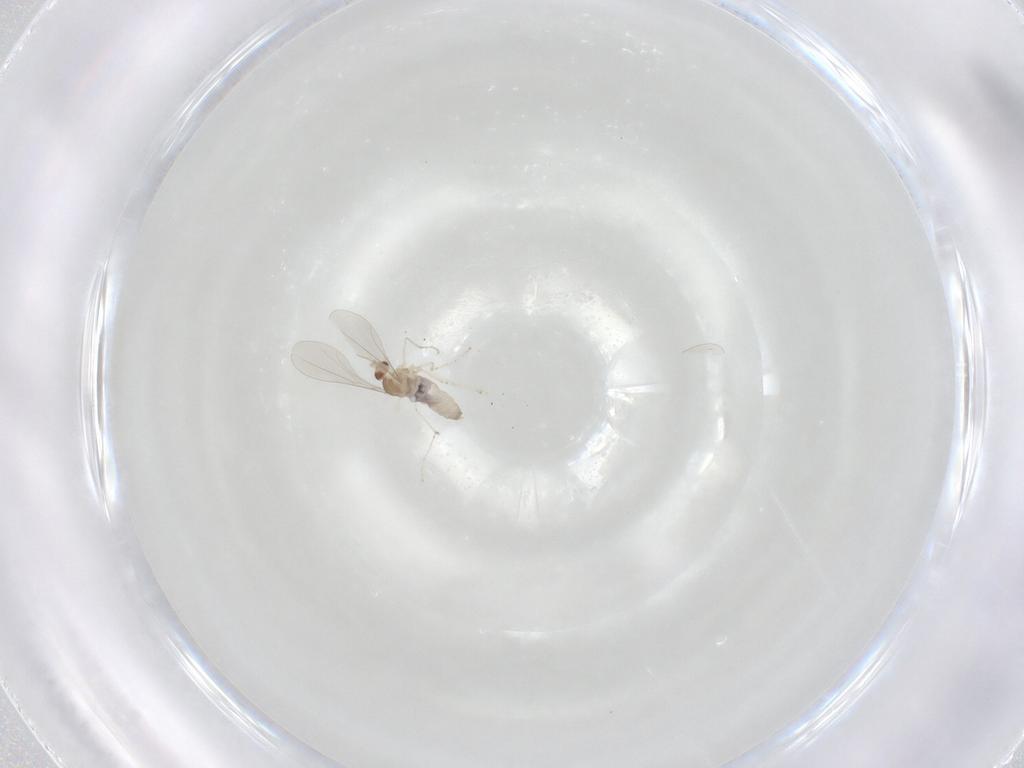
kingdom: Animalia
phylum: Arthropoda
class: Insecta
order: Diptera
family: Cecidomyiidae
